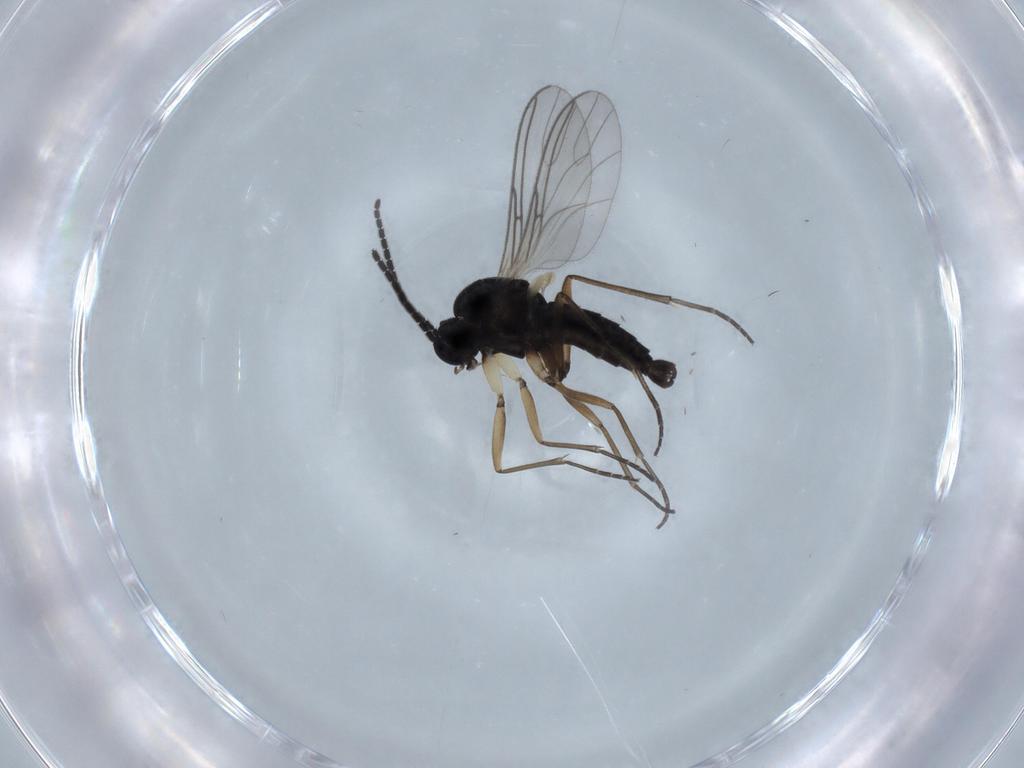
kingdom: Animalia
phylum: Arthropoda
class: Insecta
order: Diptera
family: Sciaridae
